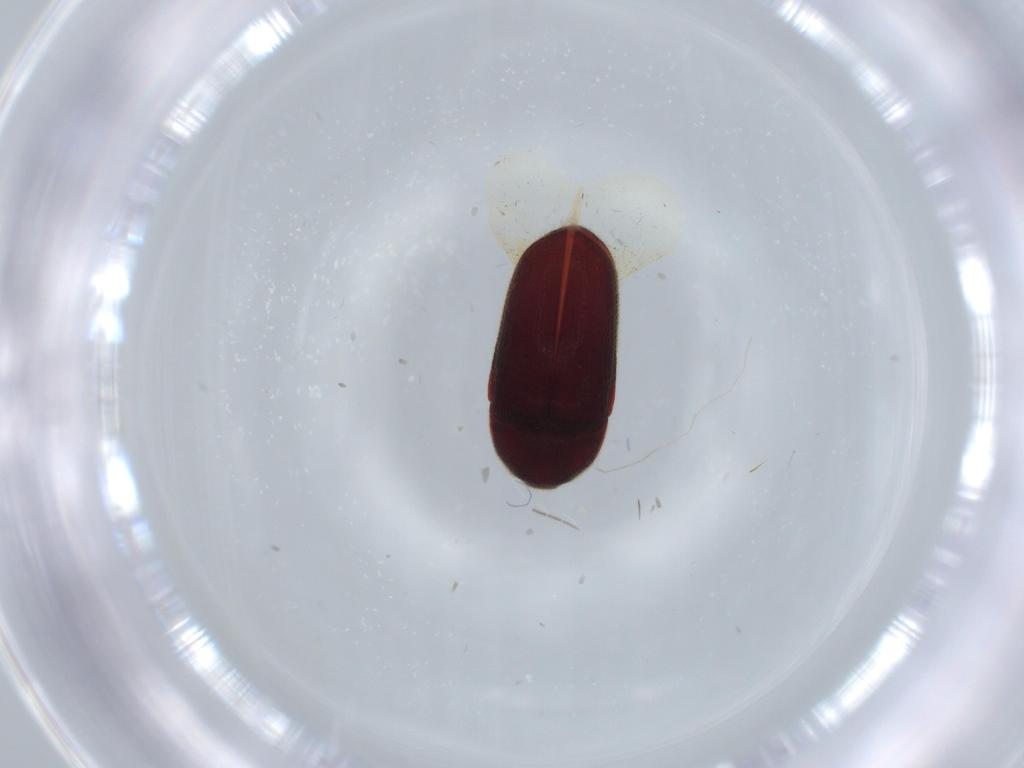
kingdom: Animalia
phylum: Arthropoda
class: Insecta
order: Coleoptera
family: Throscidae
